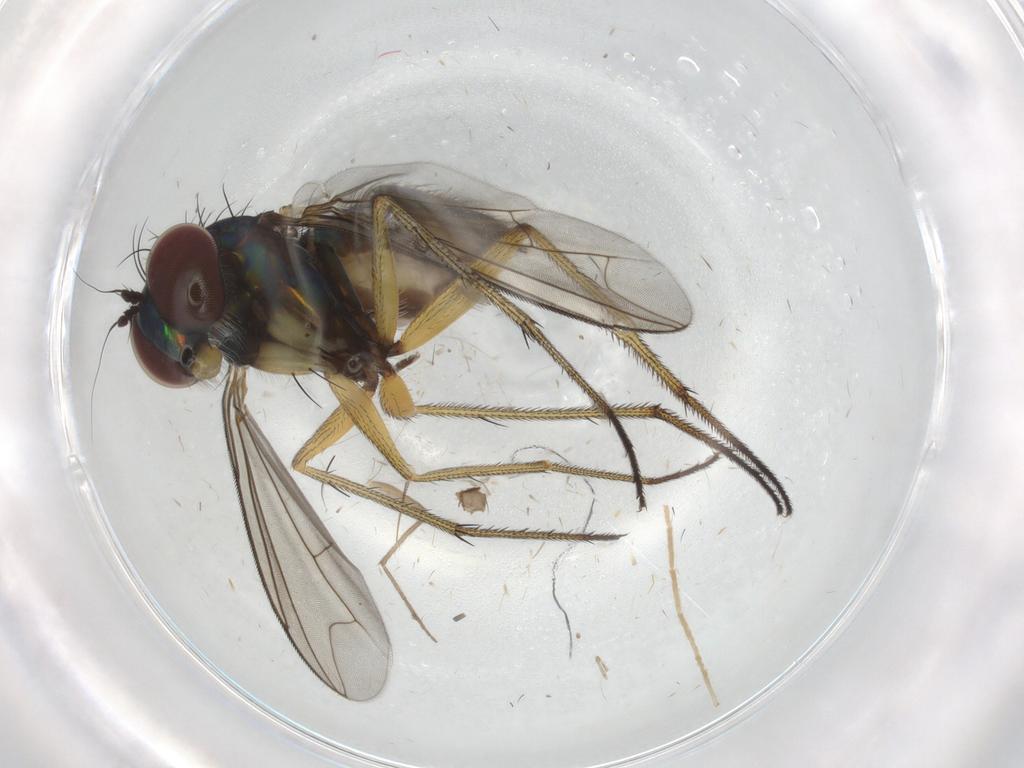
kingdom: Animalia
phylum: Arthropoda
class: Insecta
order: Diptera
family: Dolichopodidae
